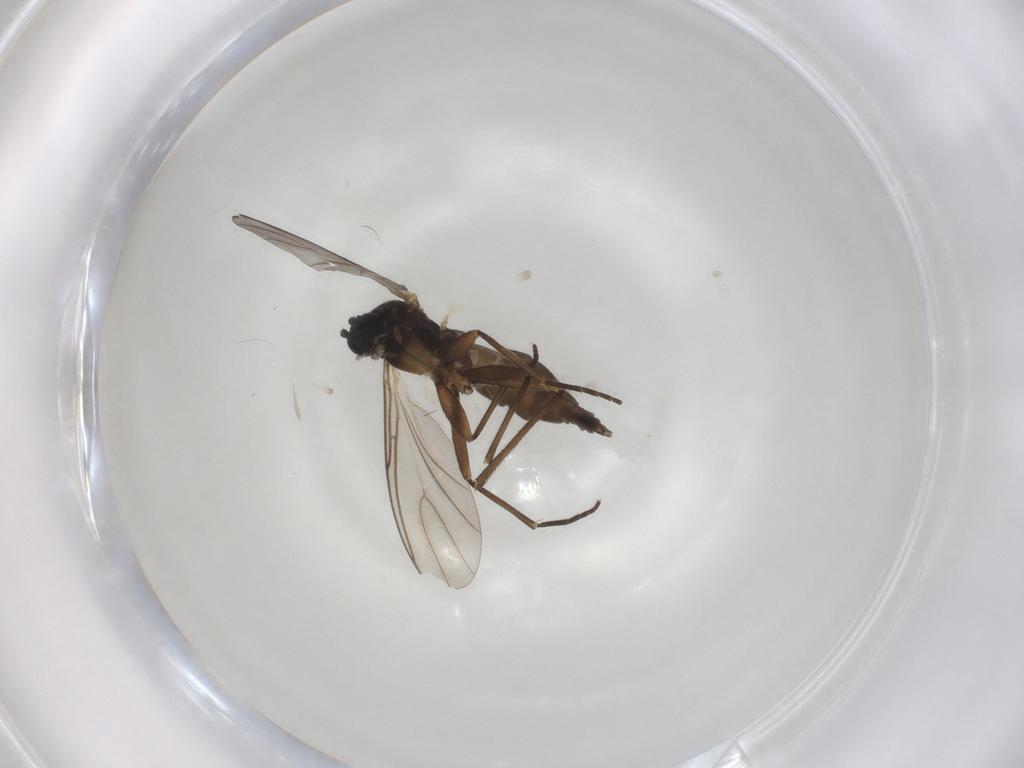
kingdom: Animalia
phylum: Arthropoda
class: Insecta
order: Diptera
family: Sciaridae
